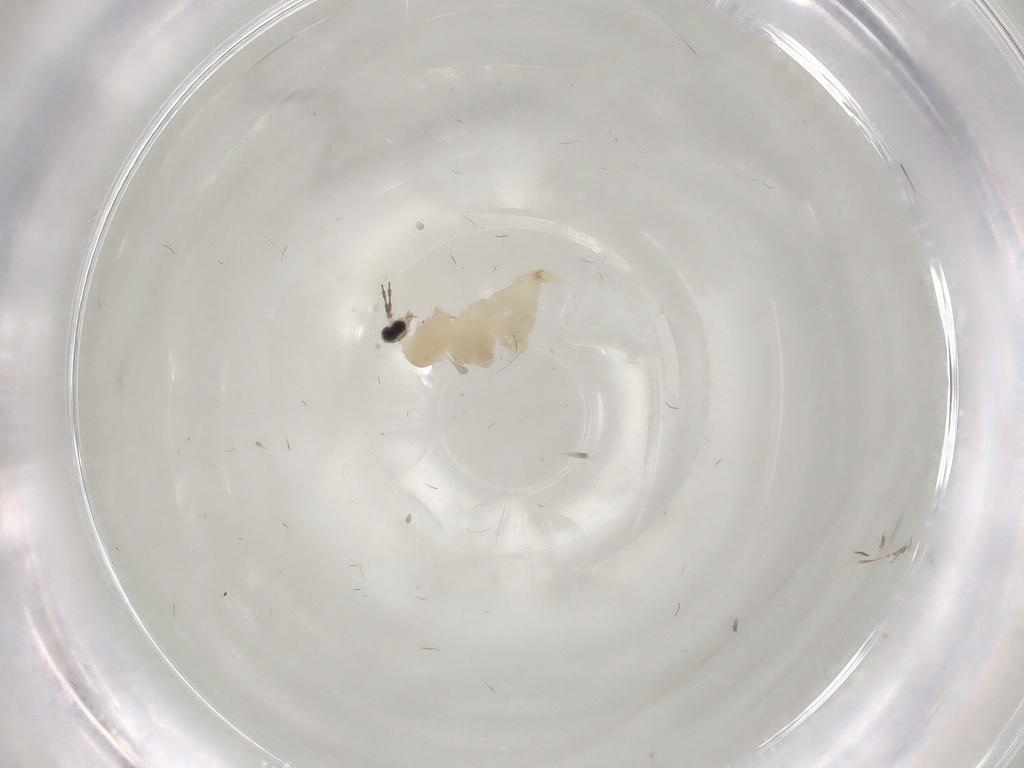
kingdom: Animalia
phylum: Arthropoda
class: Insecta
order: Diptera
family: Cecidomyiidae
